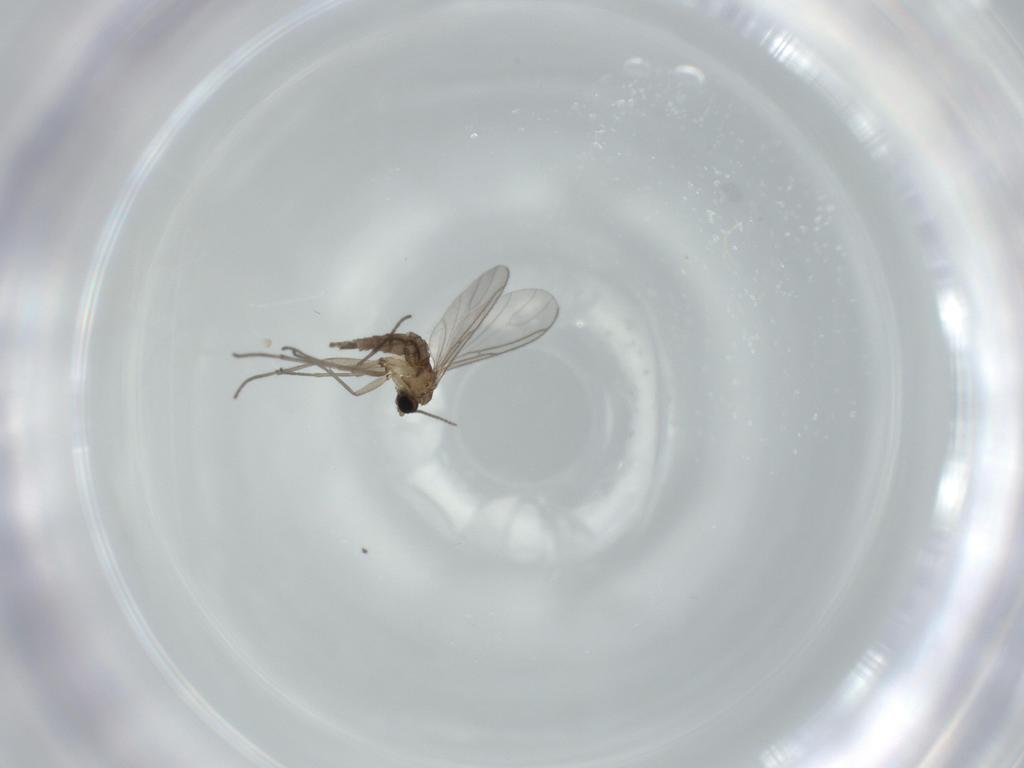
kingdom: Animalia
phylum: Arthropoda
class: Insecta
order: Diptera
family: Sciaridae
